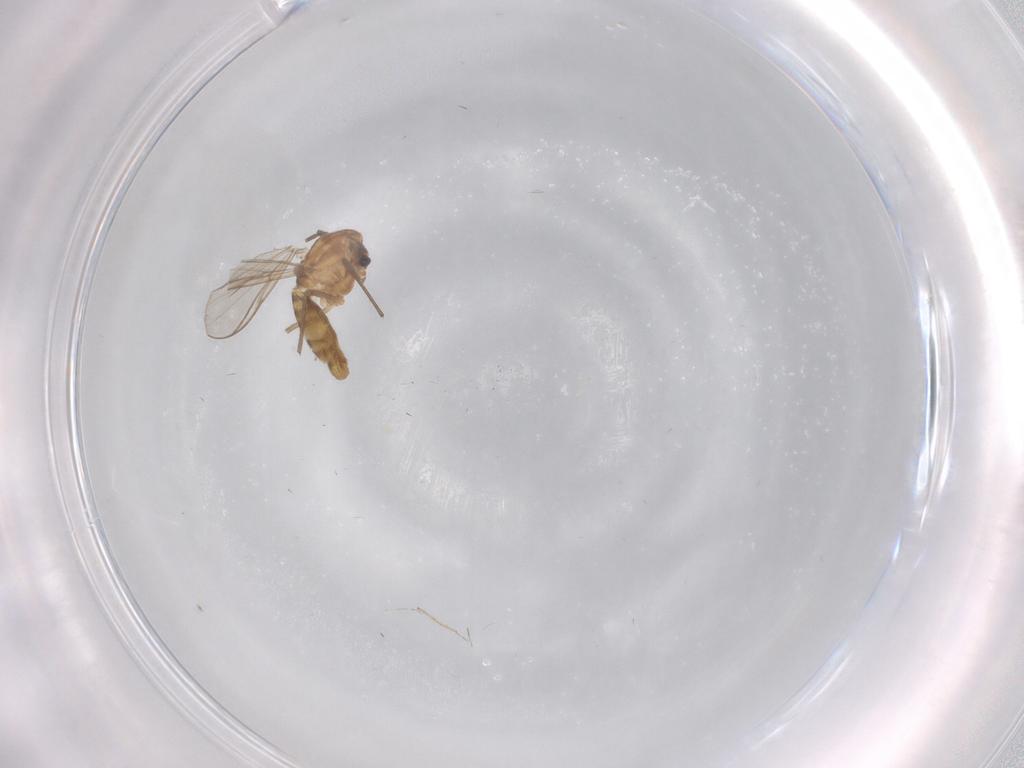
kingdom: Animalia
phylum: Arthropoda
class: Insecta
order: Diptera
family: Chironomidae
